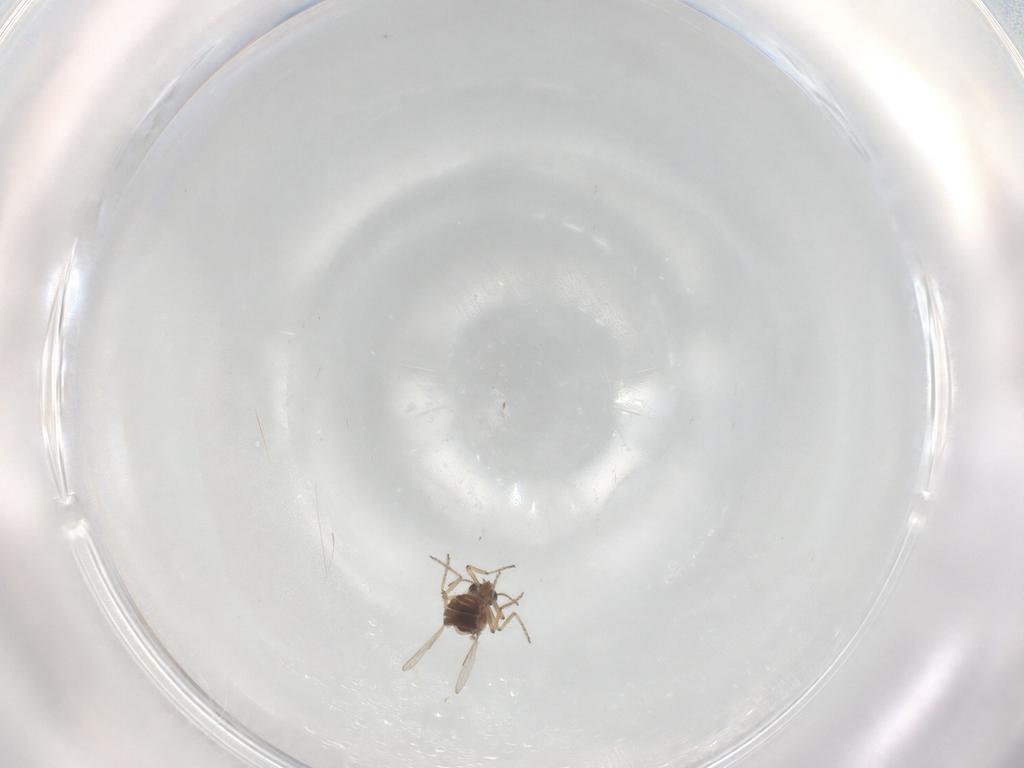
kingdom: Animalia
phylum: Arthropoda
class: Insecta
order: Diptera
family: Ceratopogonidae
